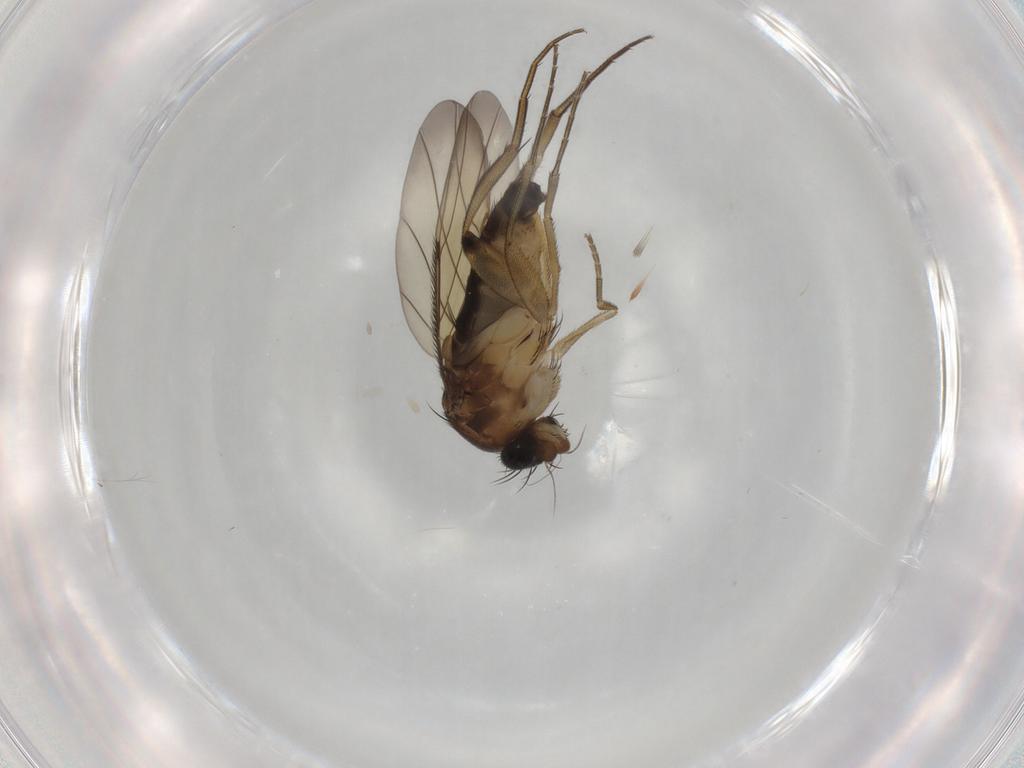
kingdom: Animalia
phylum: Arthropoda
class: Insecta
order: Diptera
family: Phoridae
